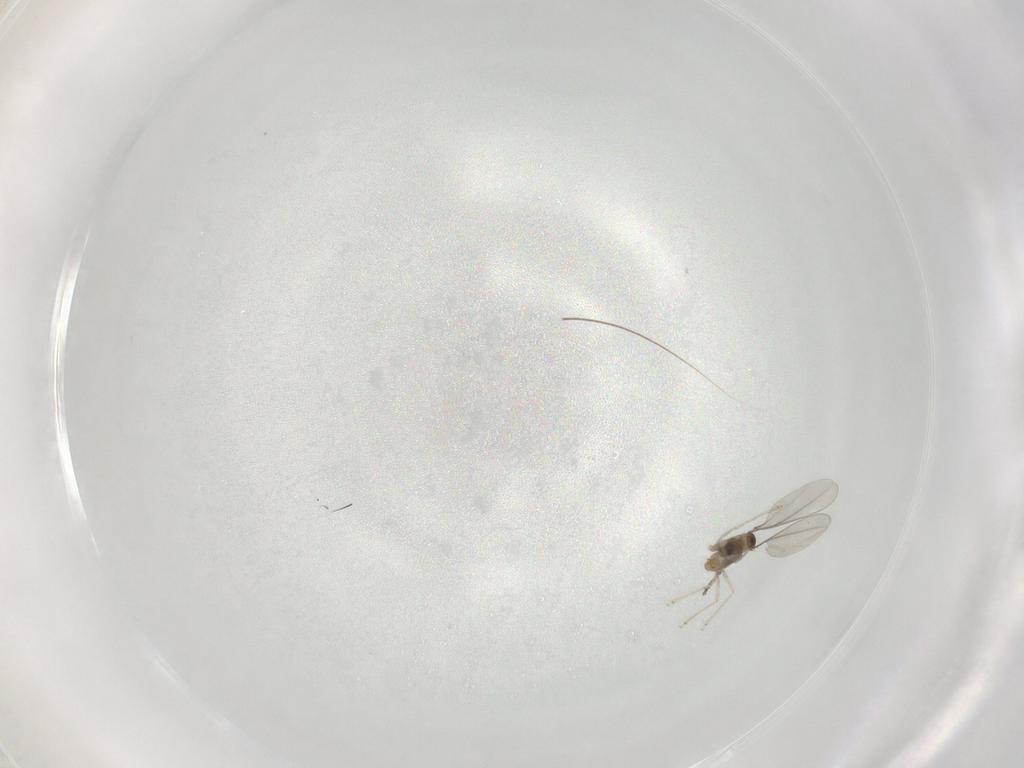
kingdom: Animalia
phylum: Arthropoda
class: Insecta
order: Diptera
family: Cecidomyiidae
